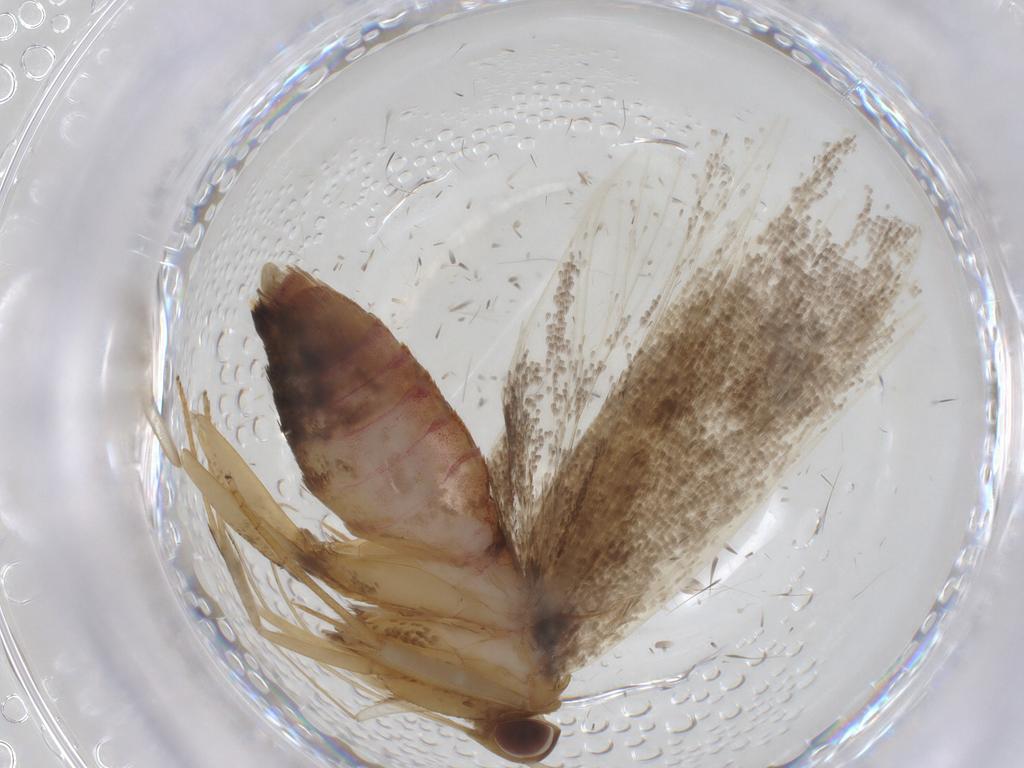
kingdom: Animalia
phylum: Arthropoda
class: Insecta
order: Lepidoptera
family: Lecithoceridae
